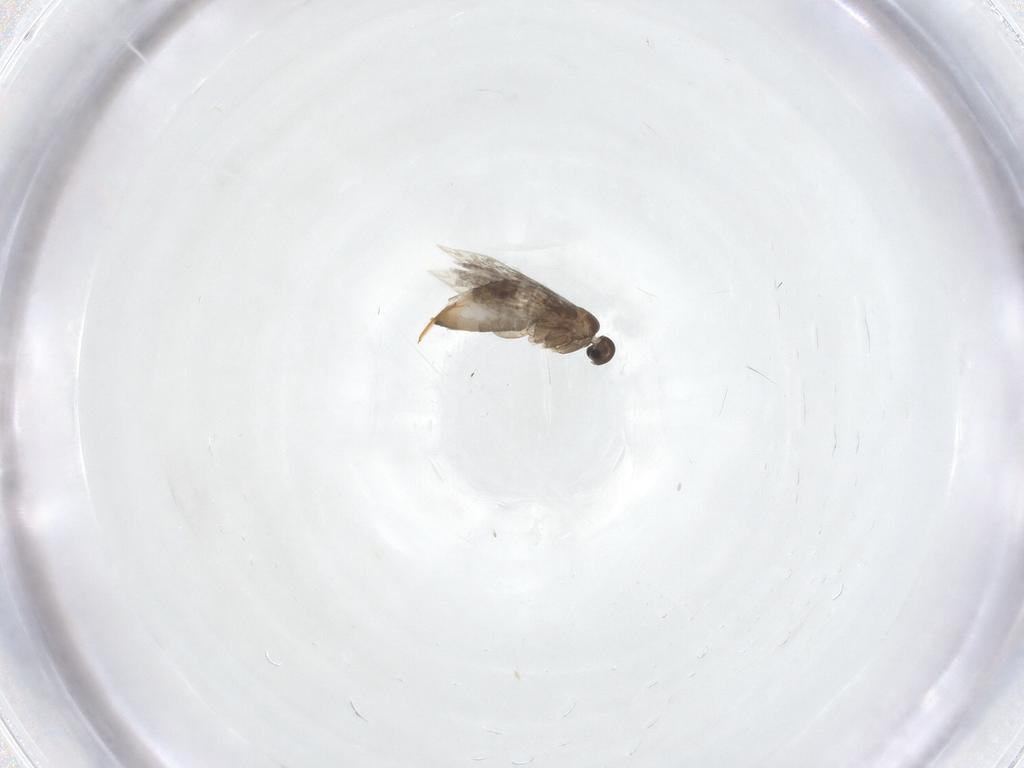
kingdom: Animalia
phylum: Arthropoda
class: Insecta
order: Lepidoptera
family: Heliozelidae
